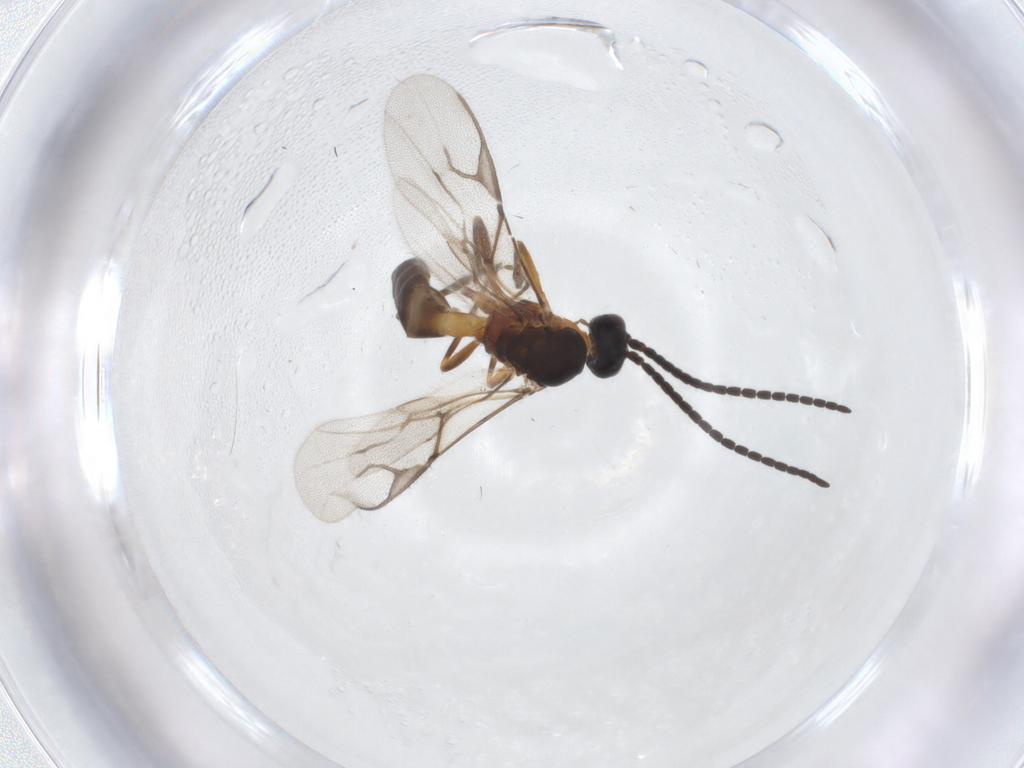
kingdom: Animalia
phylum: Arthropoda
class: Insecta
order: Hymenoptera
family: Braconidae
